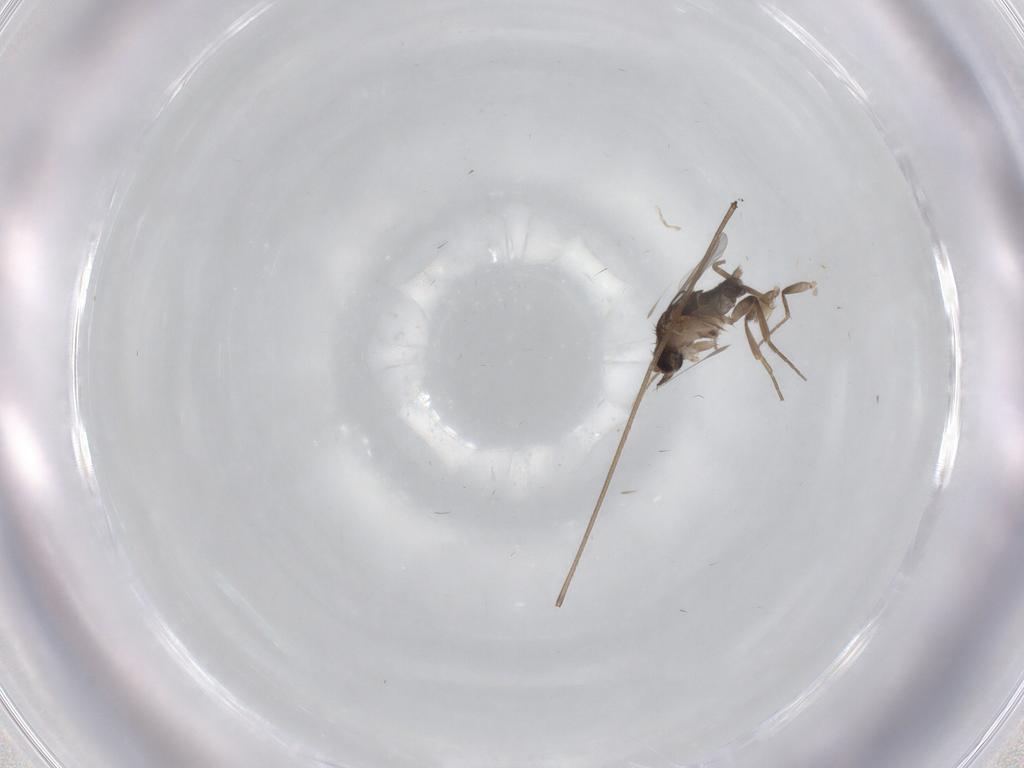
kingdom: Animalia
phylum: Arthropoda
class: Insecta
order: Diptera
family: Phoridae
